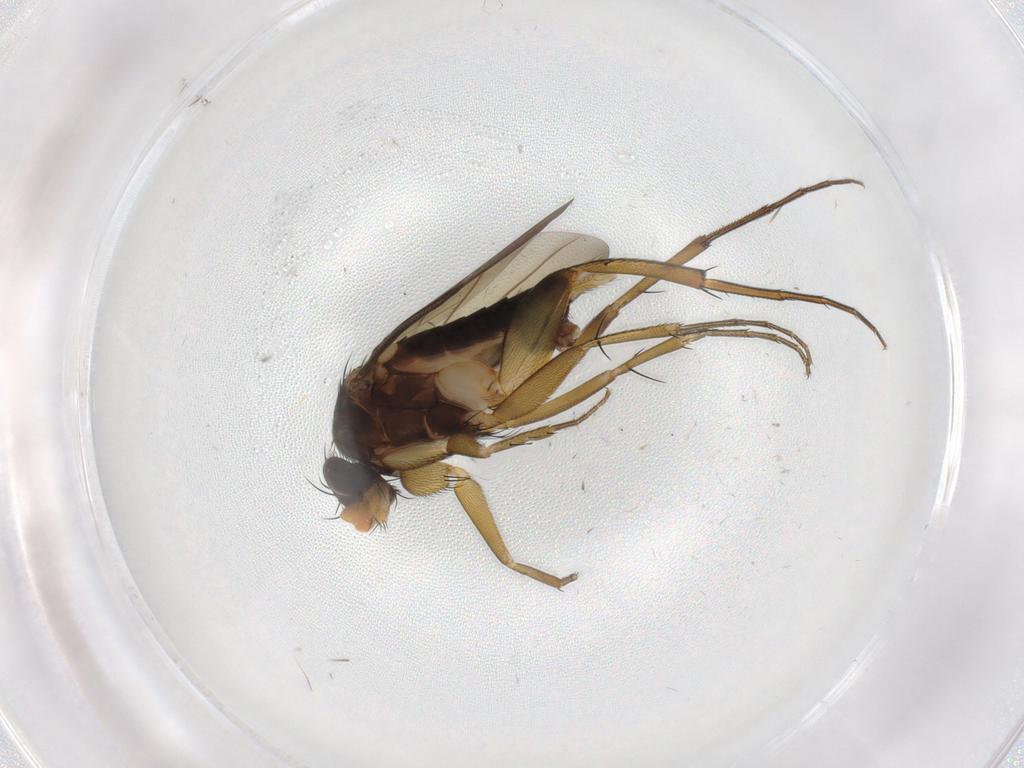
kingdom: Animalia
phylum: Arthropoda
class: Insecta
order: Diptera
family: Phoridae
